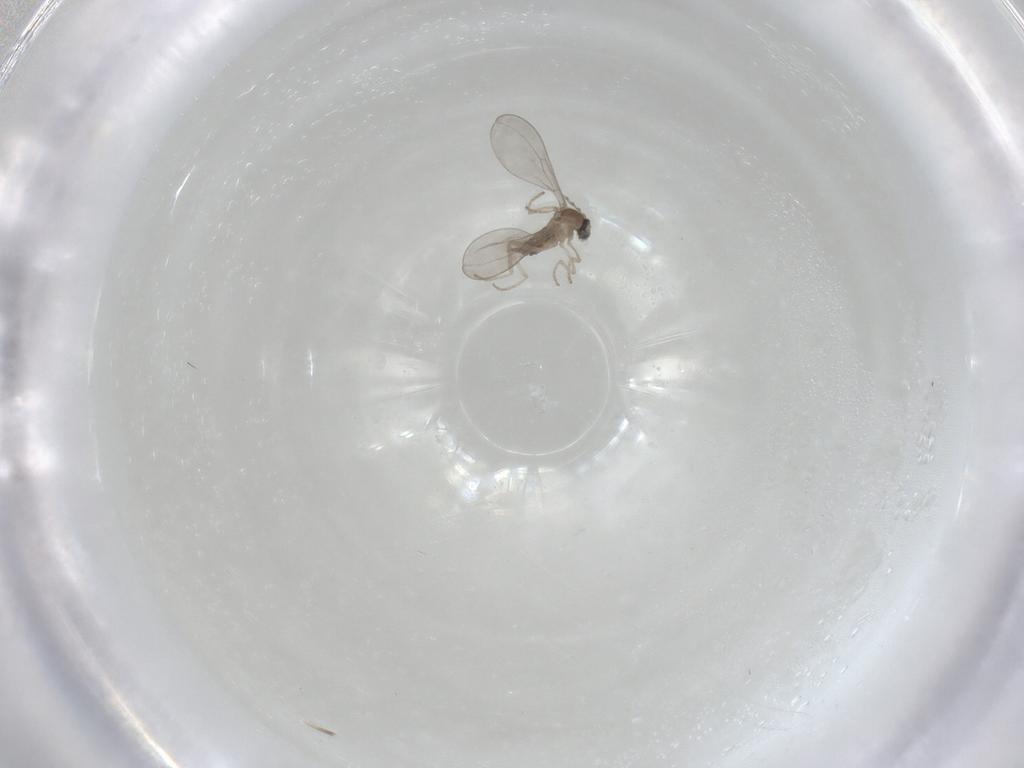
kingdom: Animalia
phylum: Arthropoda
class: Insecta
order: Diptera
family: Cecidomyiidae
